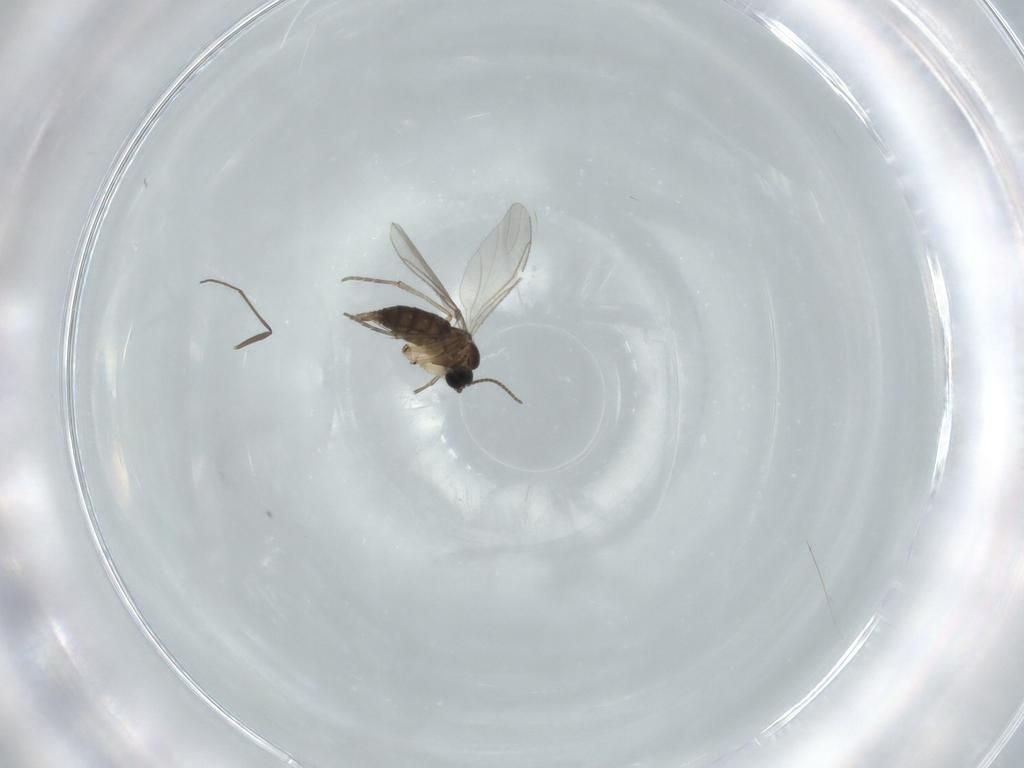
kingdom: Animalia
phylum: Arthropoda
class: Insecta
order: Diptera
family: Chironomidae
